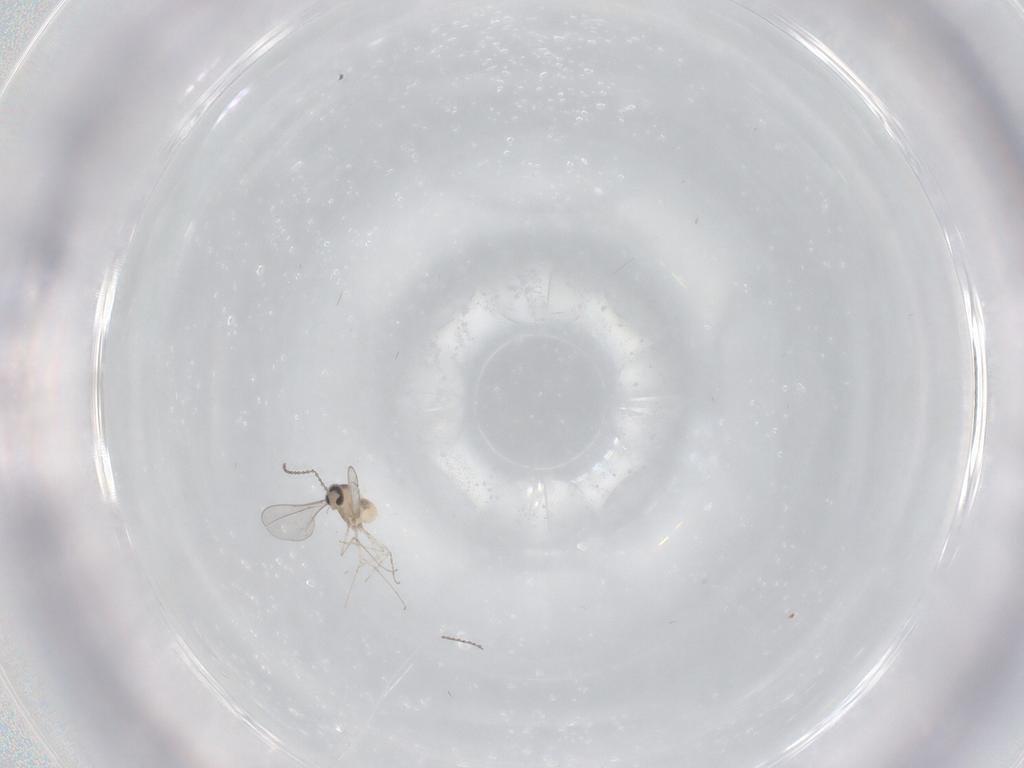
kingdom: Animalia
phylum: Arthropoda
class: Insecta
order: Diptera
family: Cecidomyiidae
